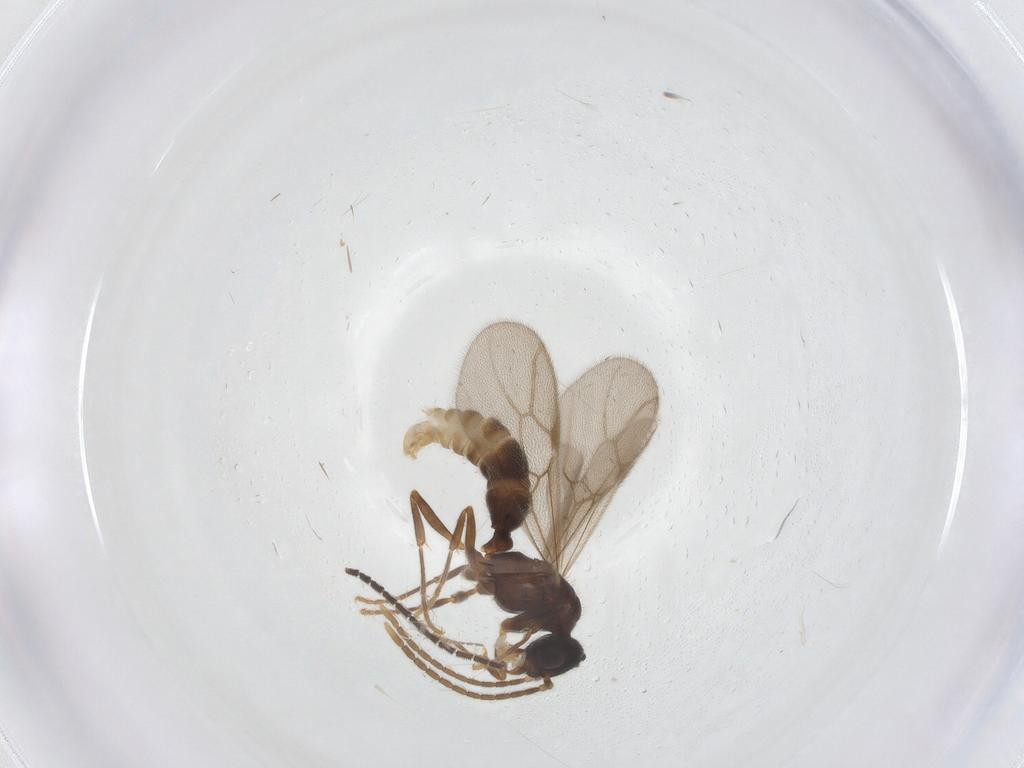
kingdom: Animalia
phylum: Arthropoda
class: Insecta
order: Hymenoptera
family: Formicidae
